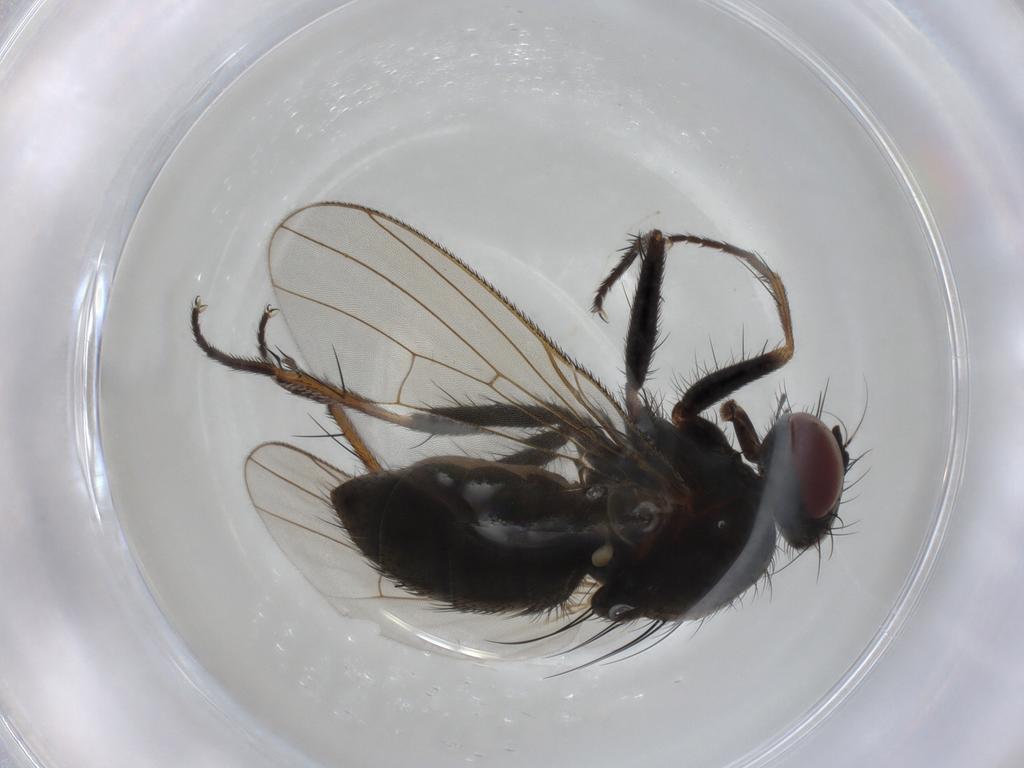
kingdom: Animalia
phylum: Arthropoda
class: Insecta
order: Diptera
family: Muscidae
